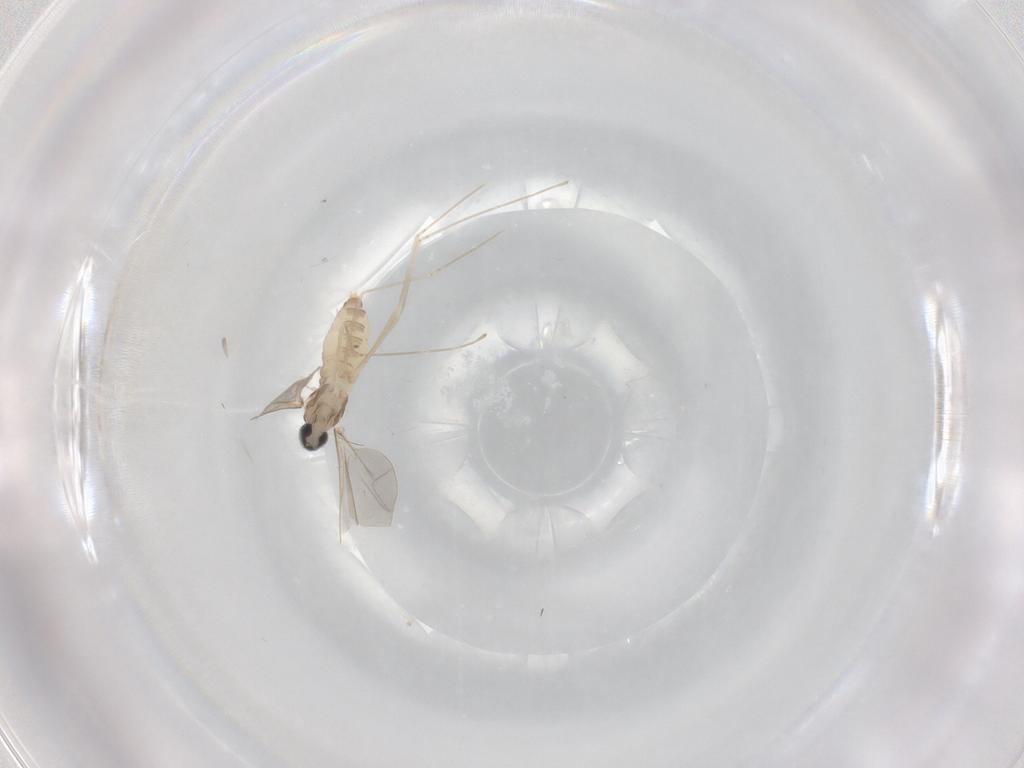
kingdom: Animalia
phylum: Arthropoda
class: Insecta
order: Diptera
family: Cecidomyiidae
